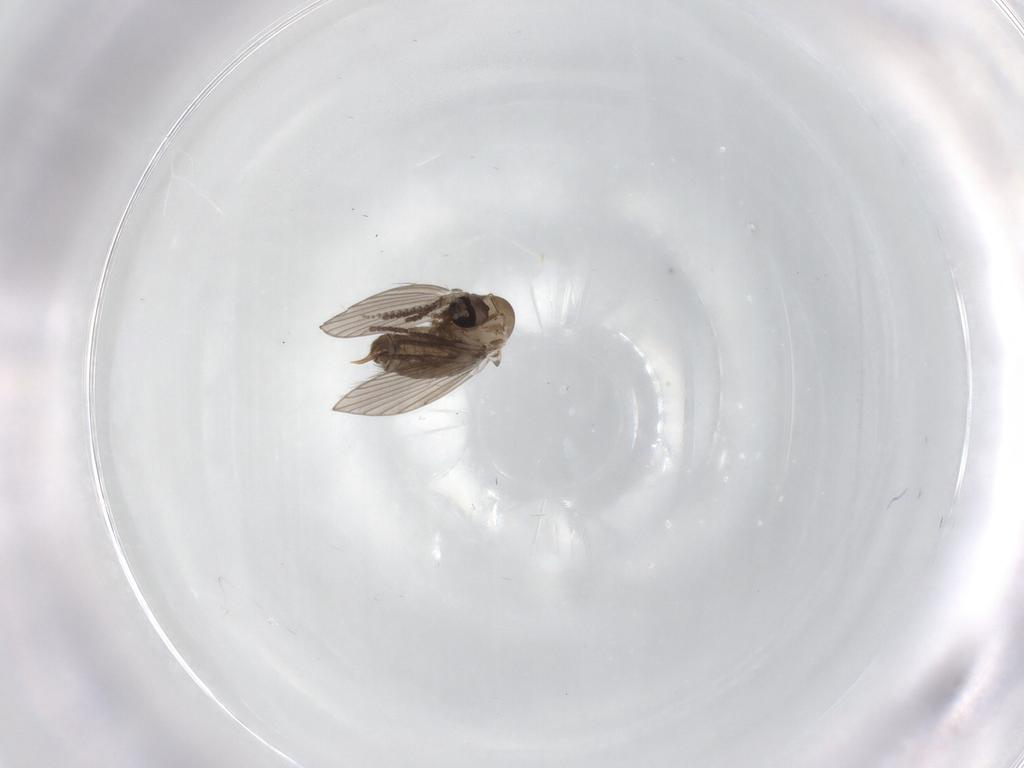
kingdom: Animalia
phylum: Arthropoda
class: Insecta
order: Diptera
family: Psychodidae
